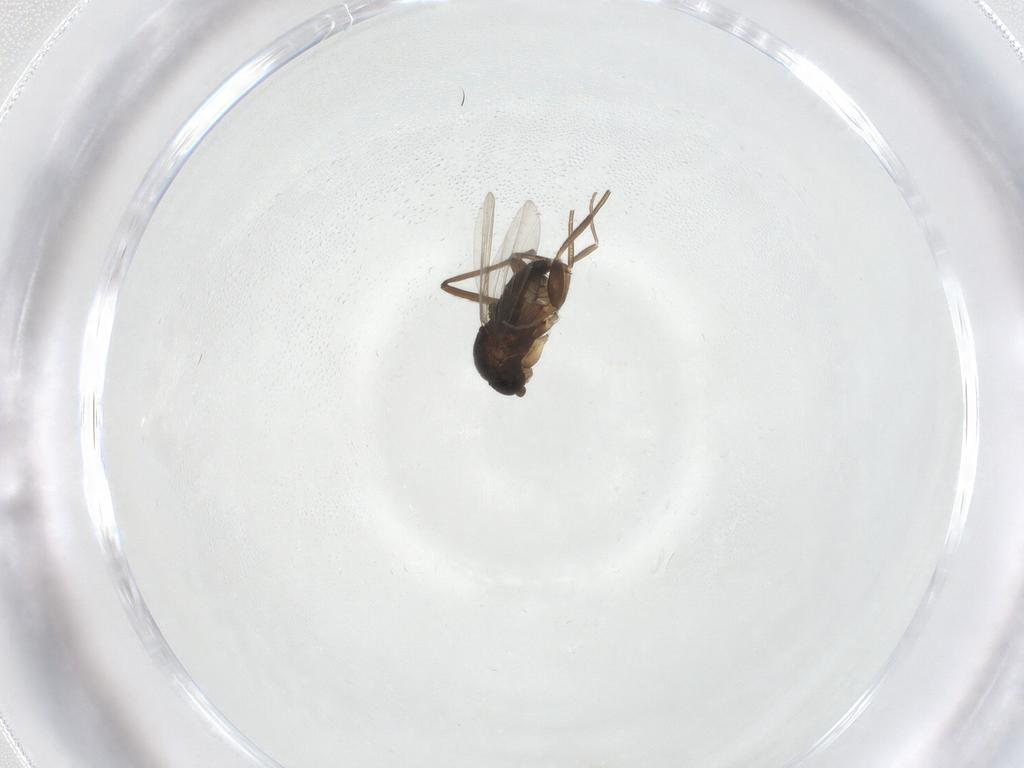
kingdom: Animalia
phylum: Arthropoda
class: Insecta
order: Diptera
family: Phoridae
